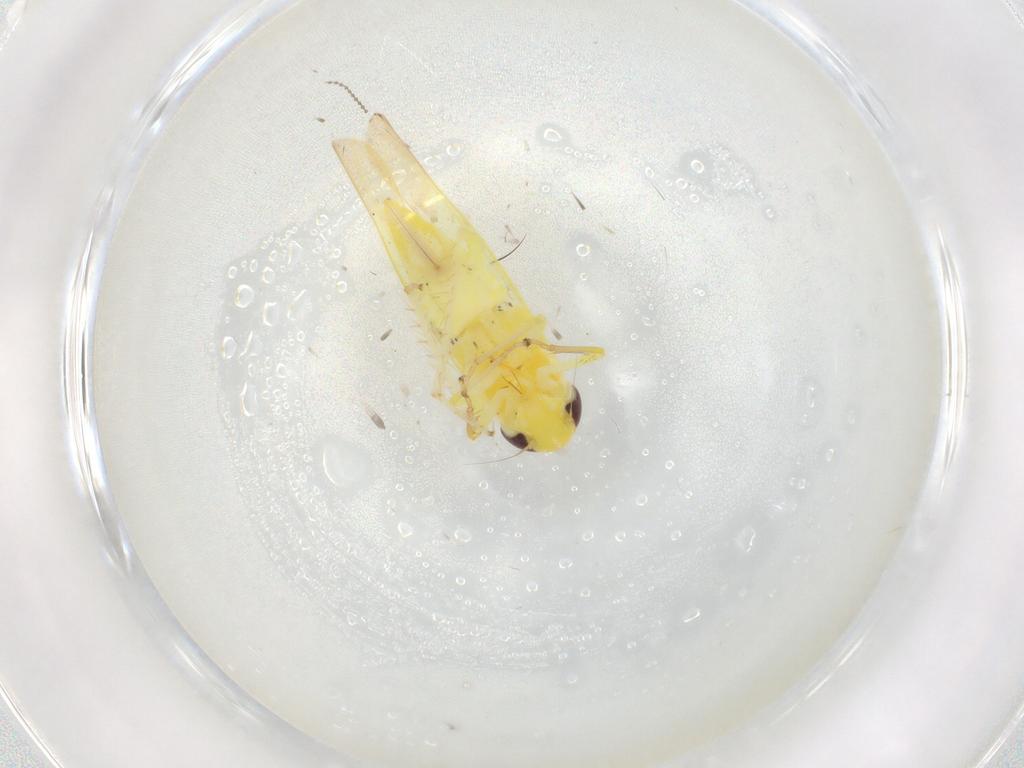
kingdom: Animalia
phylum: Arthropoda
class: Insecta
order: Hemiptera
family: Cicadellidae
